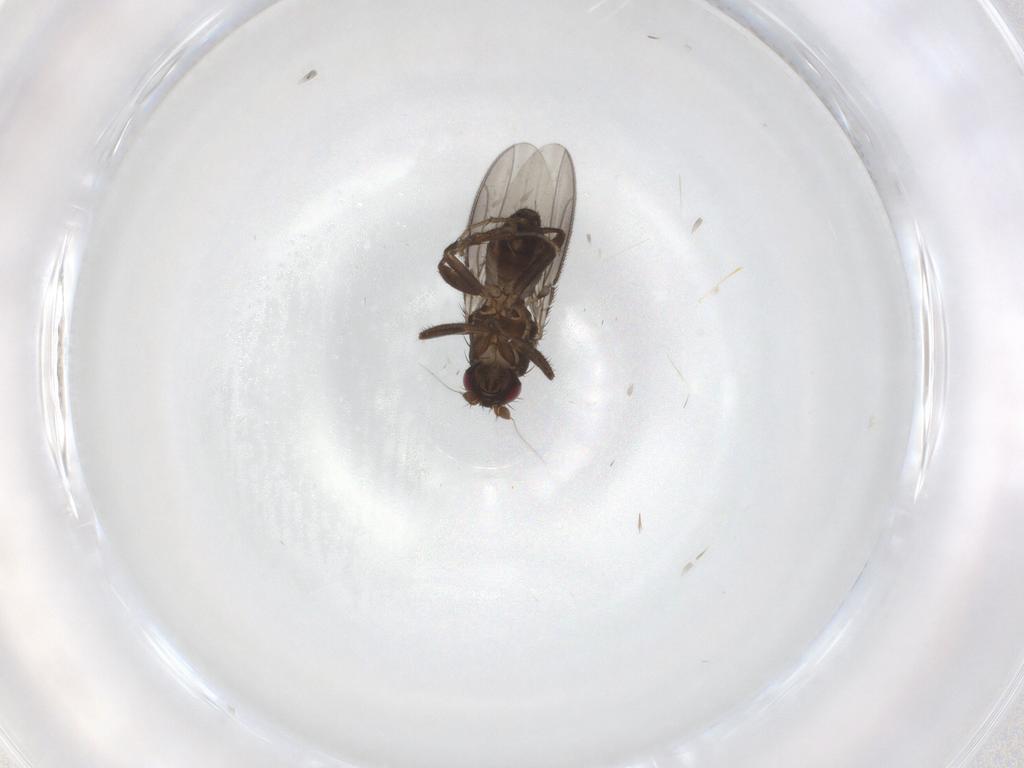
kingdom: Animalia
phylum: Arthropoda
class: Insecta
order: Diptera
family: Sphaeroceridae
